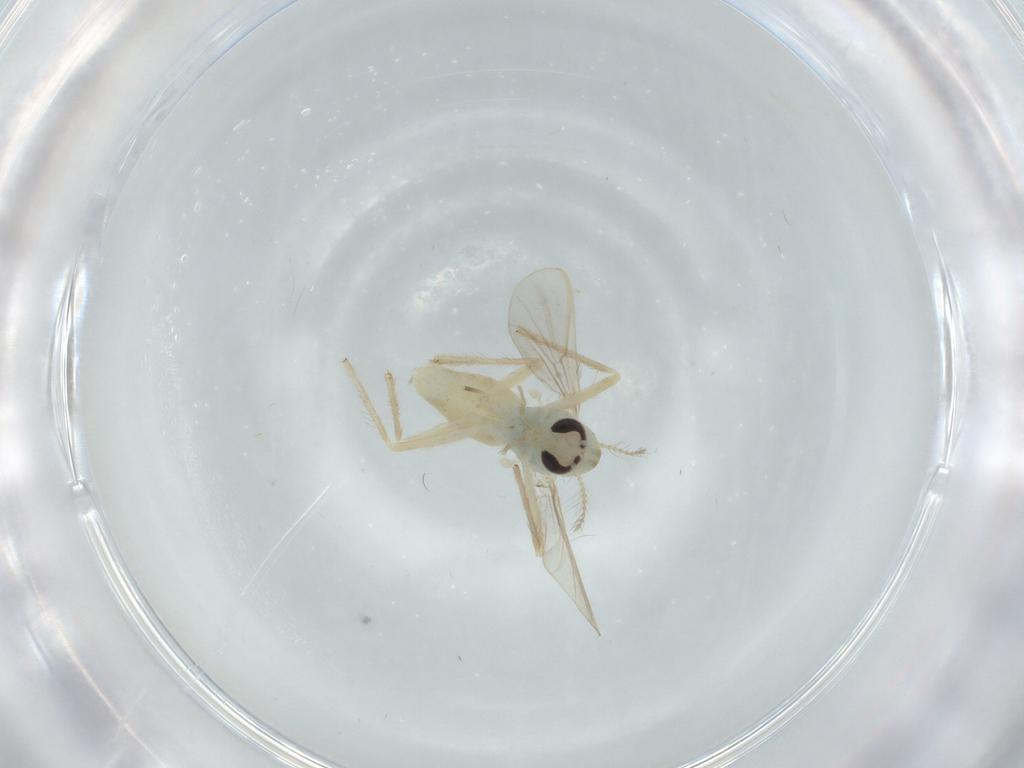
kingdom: Animalia
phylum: Arthropoda
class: Insecta
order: Diptera
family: Chironomidae
